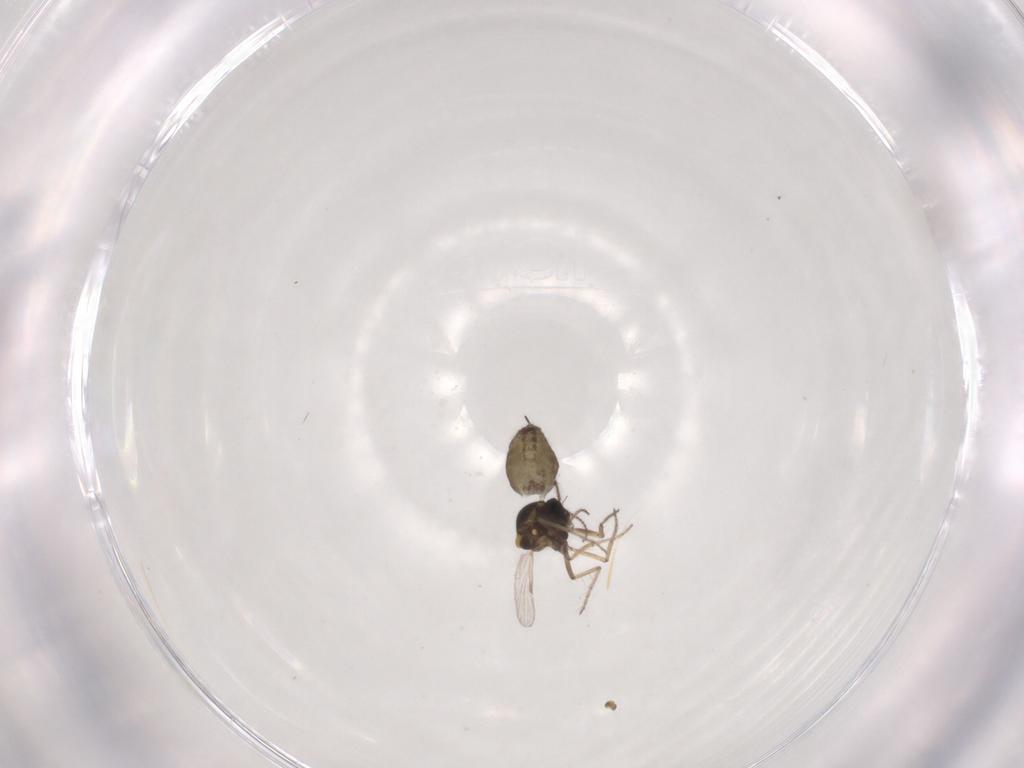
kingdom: Animalia
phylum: Arthropoda
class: Insecta
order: Diptera
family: Ceratopogonidae
